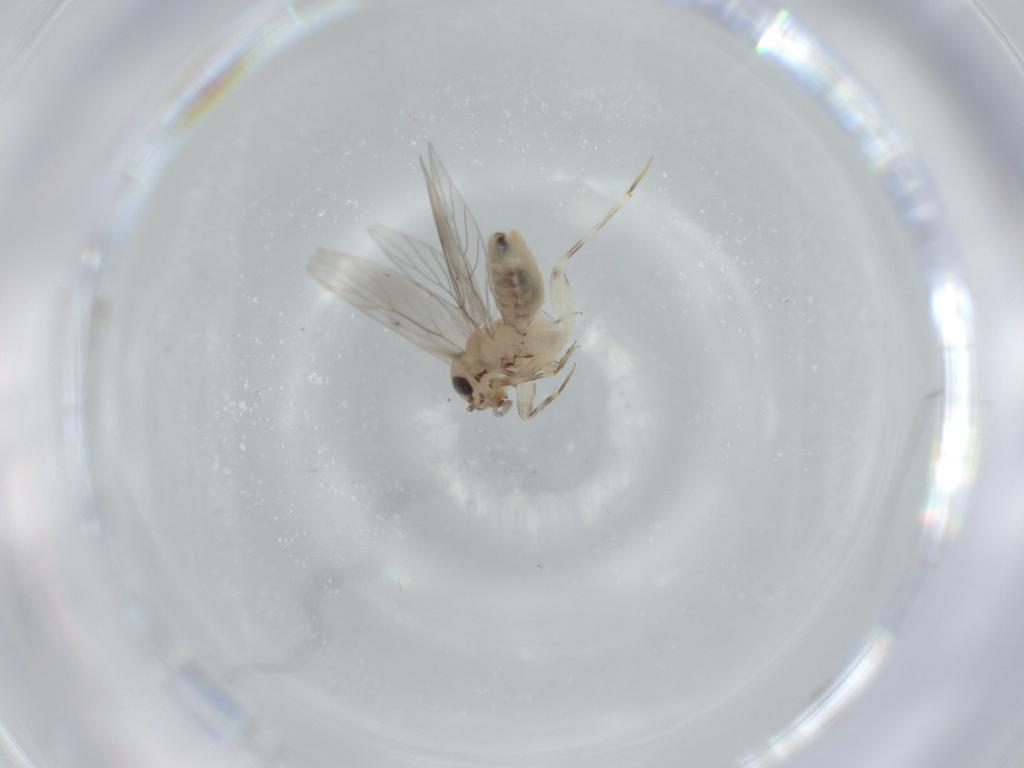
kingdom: Animalia
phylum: Arthropoda
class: Insecta
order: Psocodea
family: Lepidopsocidae
